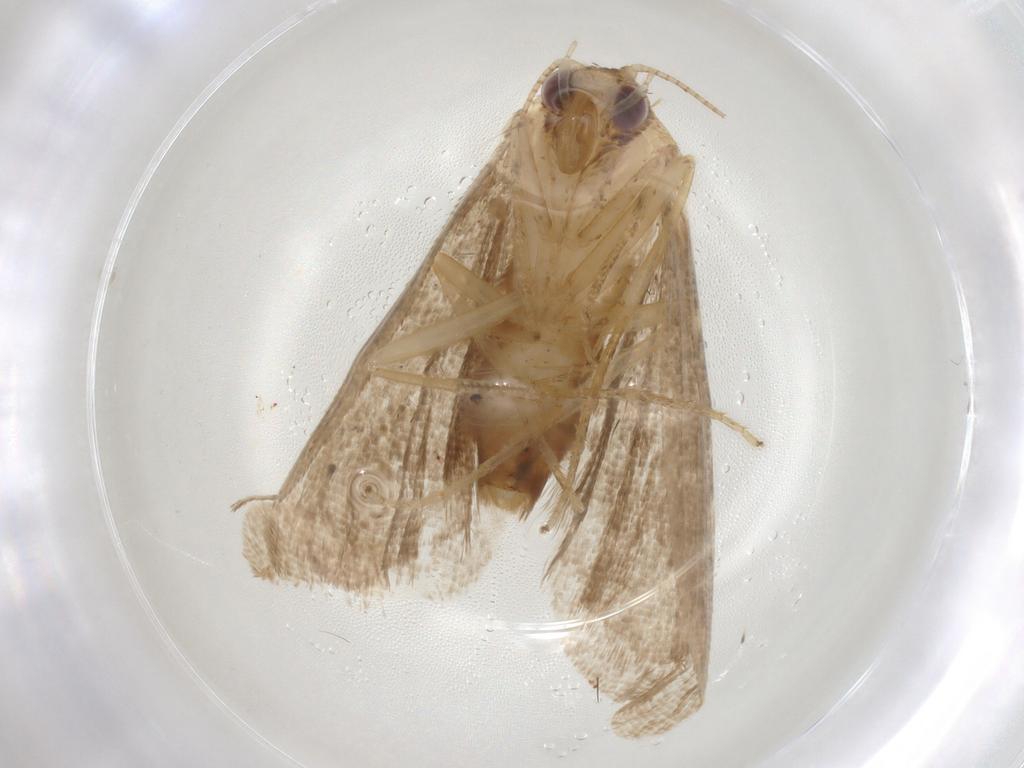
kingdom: Animalia
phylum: Arthropoda
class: Insecta
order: Lepidoptera
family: Erebidae
